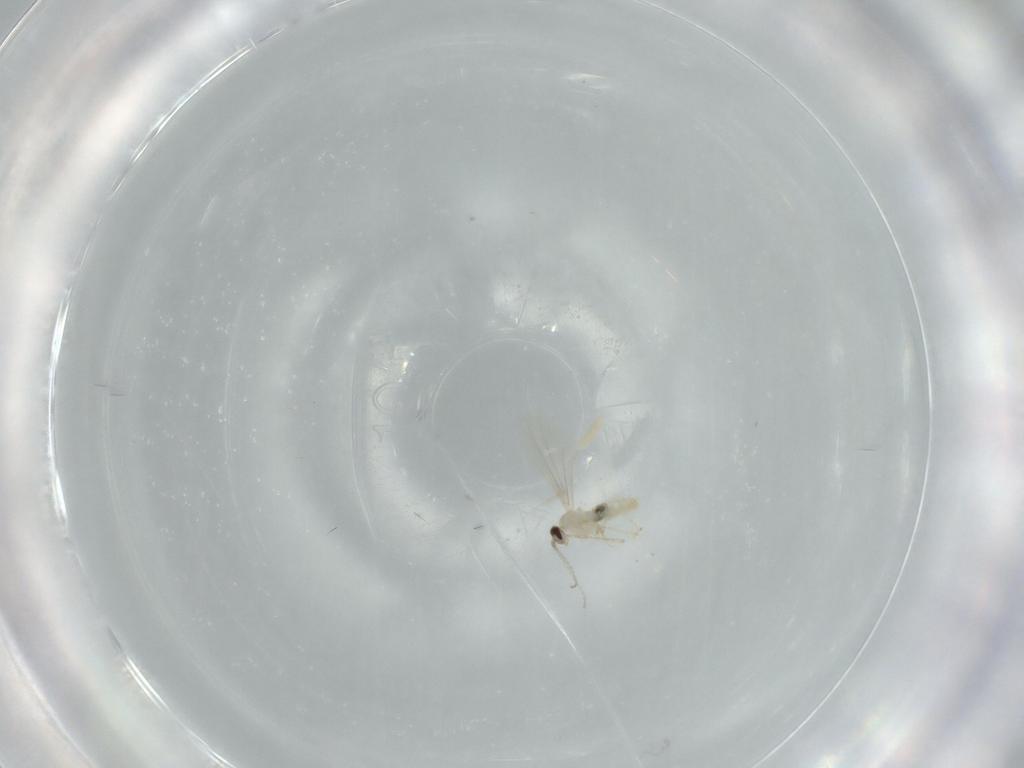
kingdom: Animalia
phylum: Arthropoda
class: Insecta
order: Diptera
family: Cecidomyiidae
